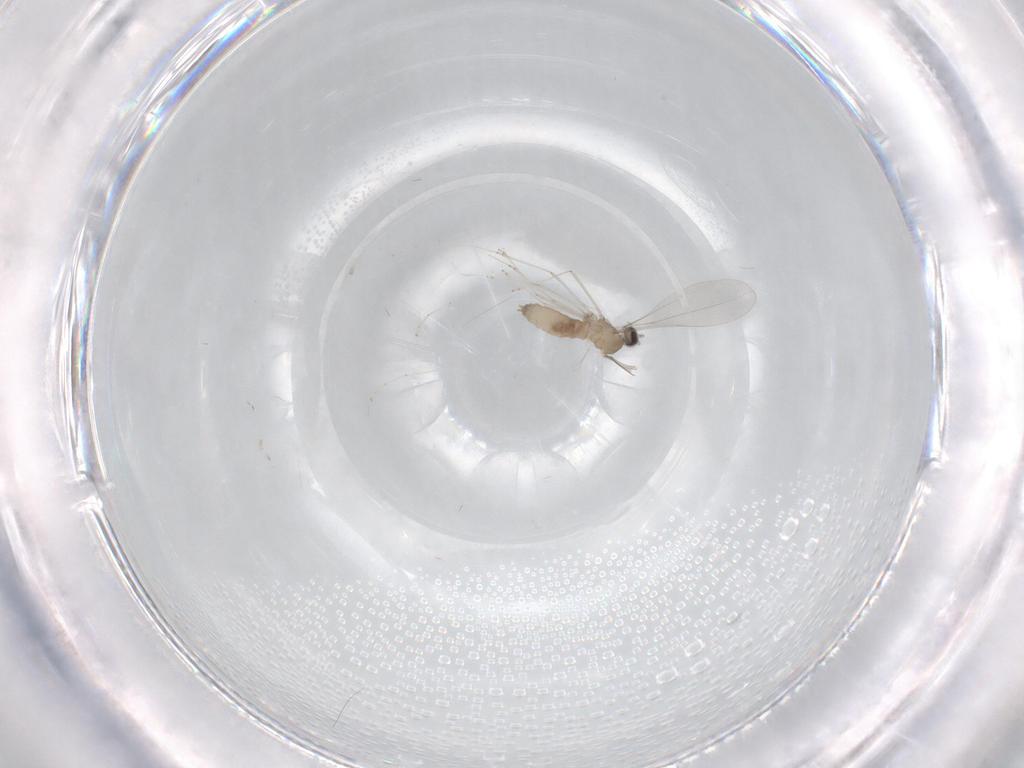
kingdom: Animalia
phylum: Arthropoda
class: Insecta
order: Diptera
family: Cecidomyiidae
